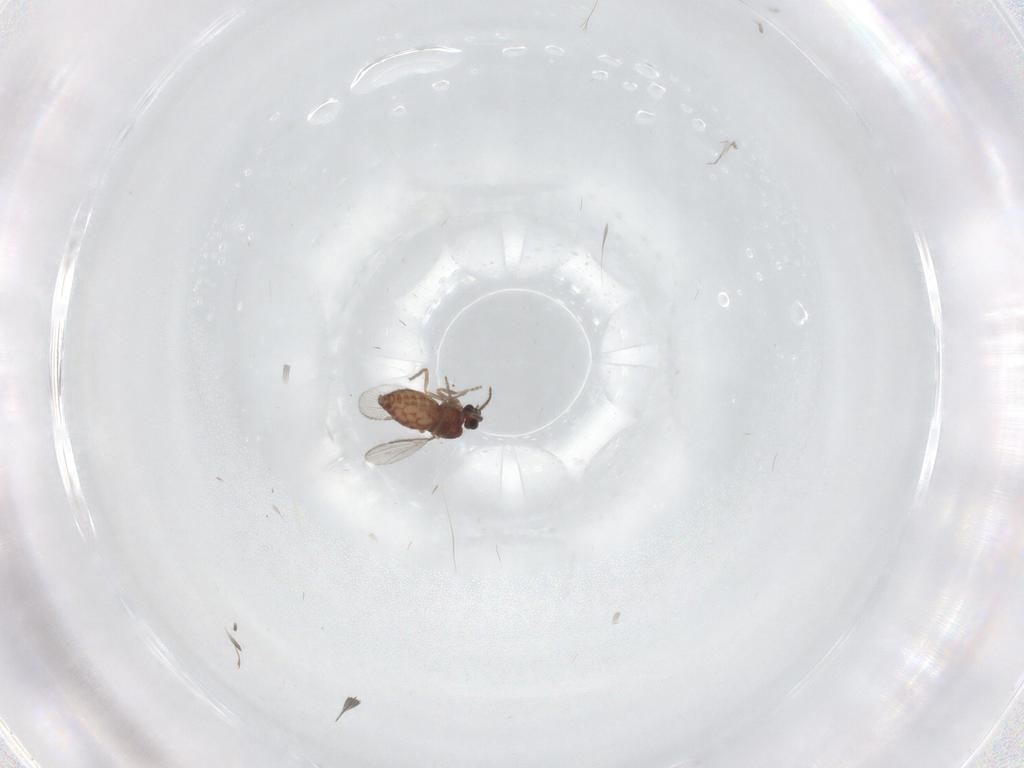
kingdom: Animalia
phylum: Arthropoda
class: Insecta
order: Diptera
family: Ceratopogonidae
